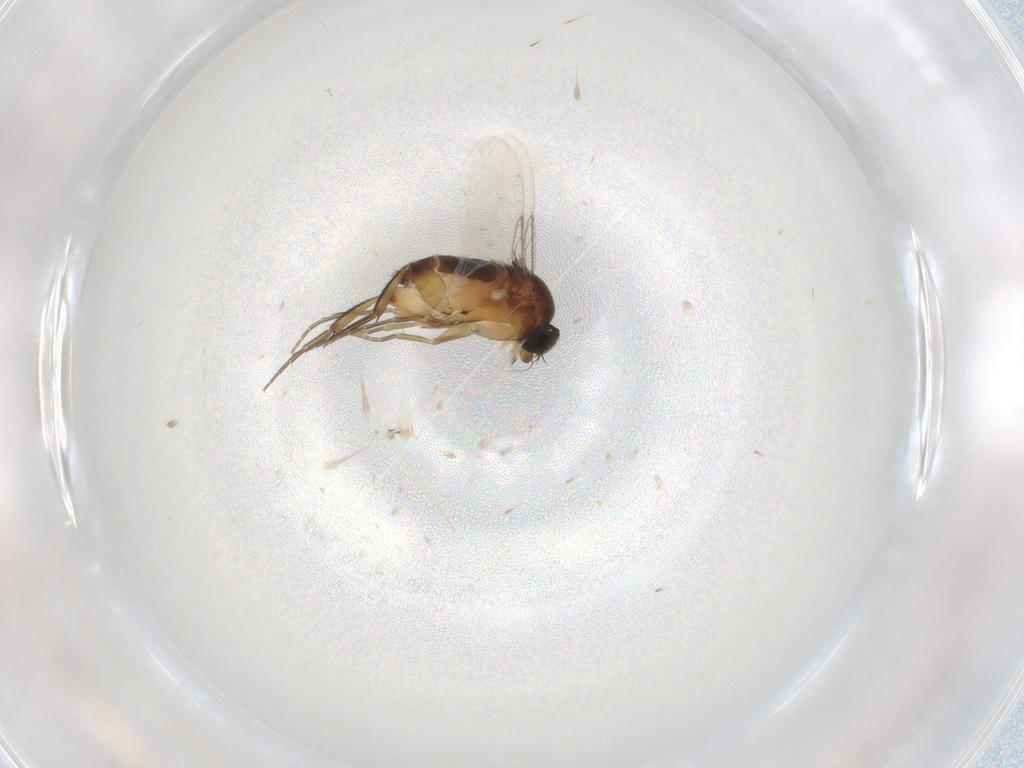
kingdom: Animalia
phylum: Arthropoda
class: Insecta
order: Diptera
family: Phoridae
